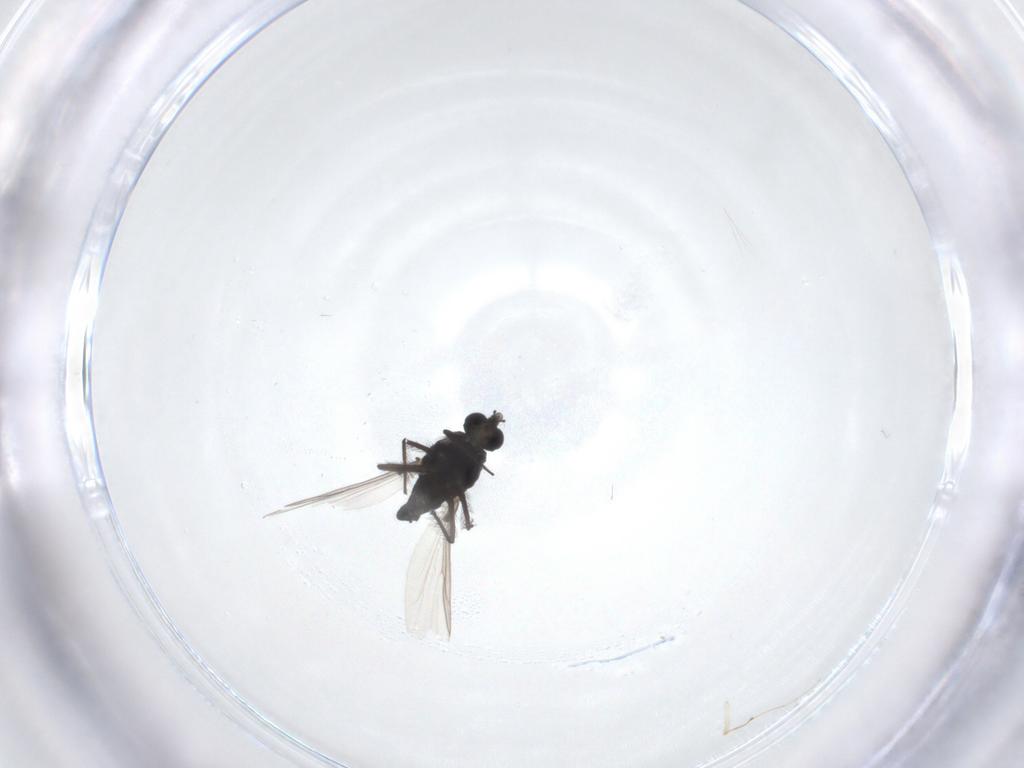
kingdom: Animalia
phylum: Arthropoda
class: Insecta
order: Diptera
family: Chironomidae
